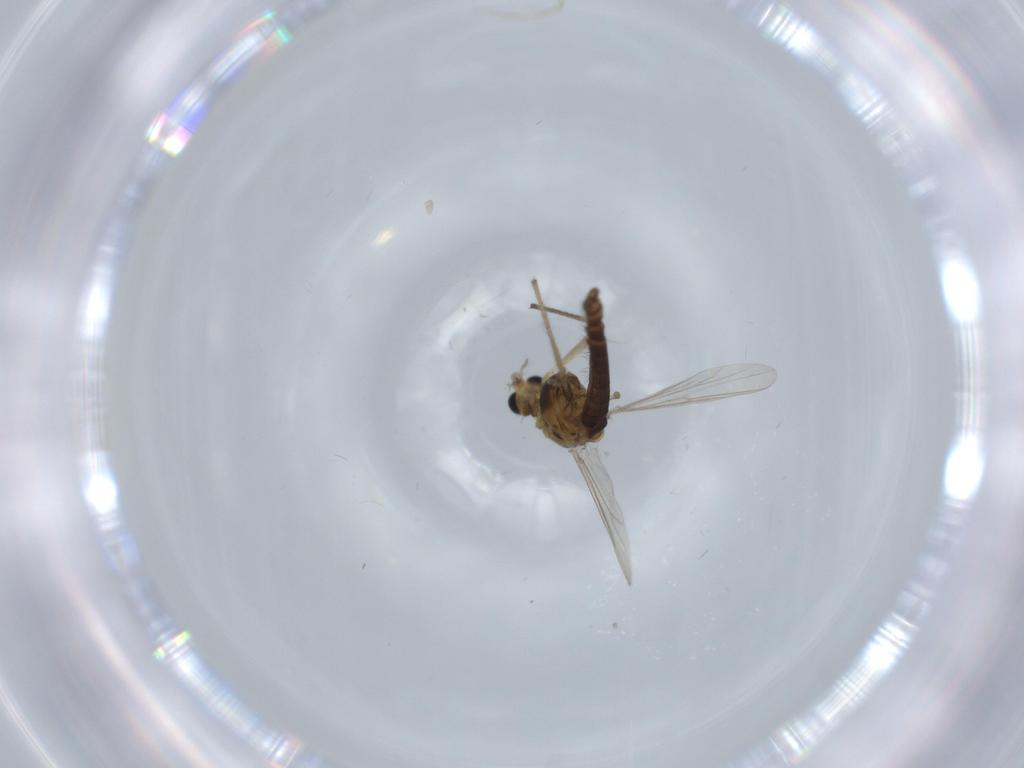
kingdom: Animalia
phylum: Arthropoda
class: Insecta
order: Diptera
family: Chironomidae
